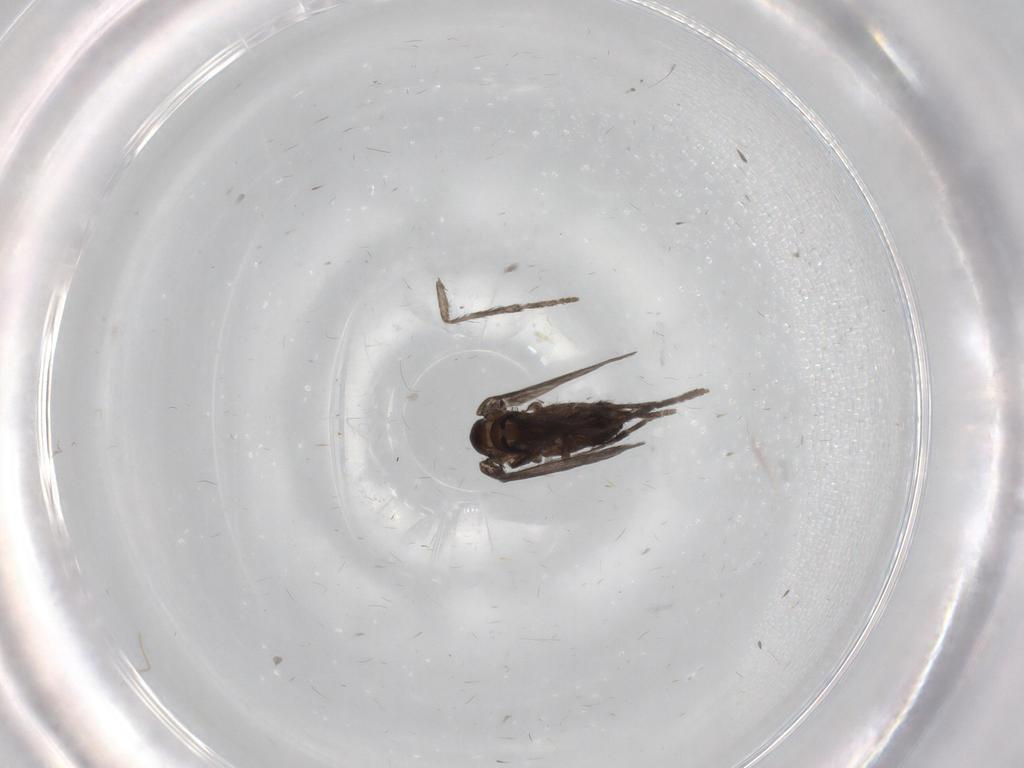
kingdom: Animalia
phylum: Arthropoda
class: Insecta
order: Diptera
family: Psychodidae
